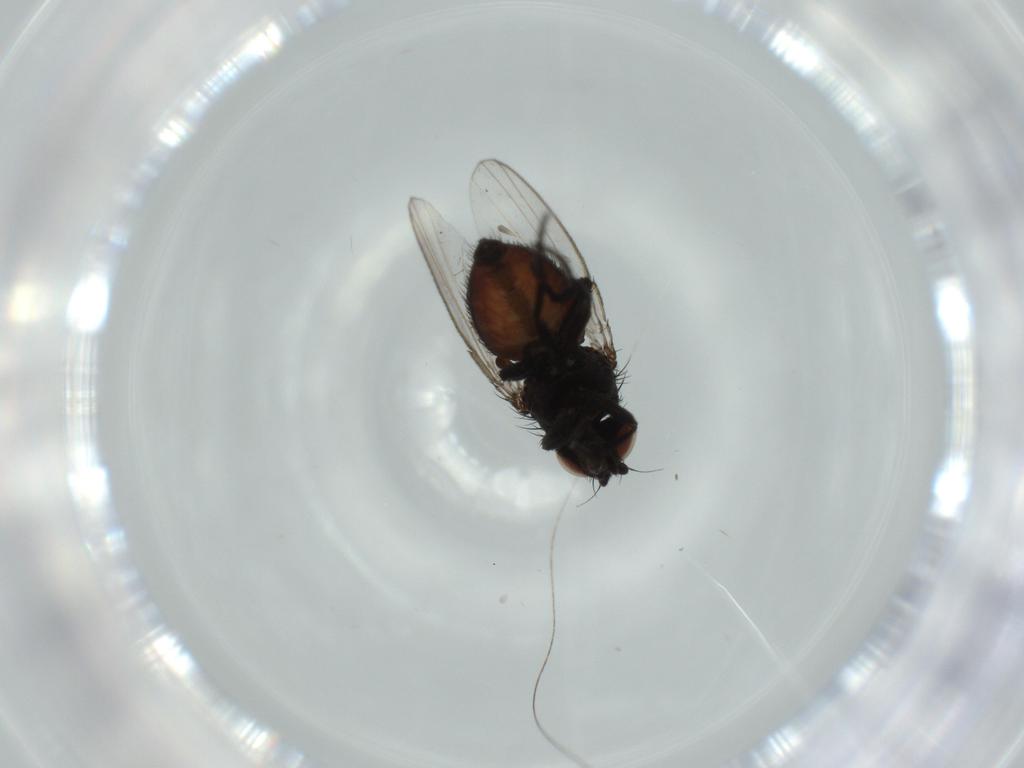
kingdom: Animalia
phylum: Arthropoda
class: Insecta
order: Diptera
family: Milichiidae
